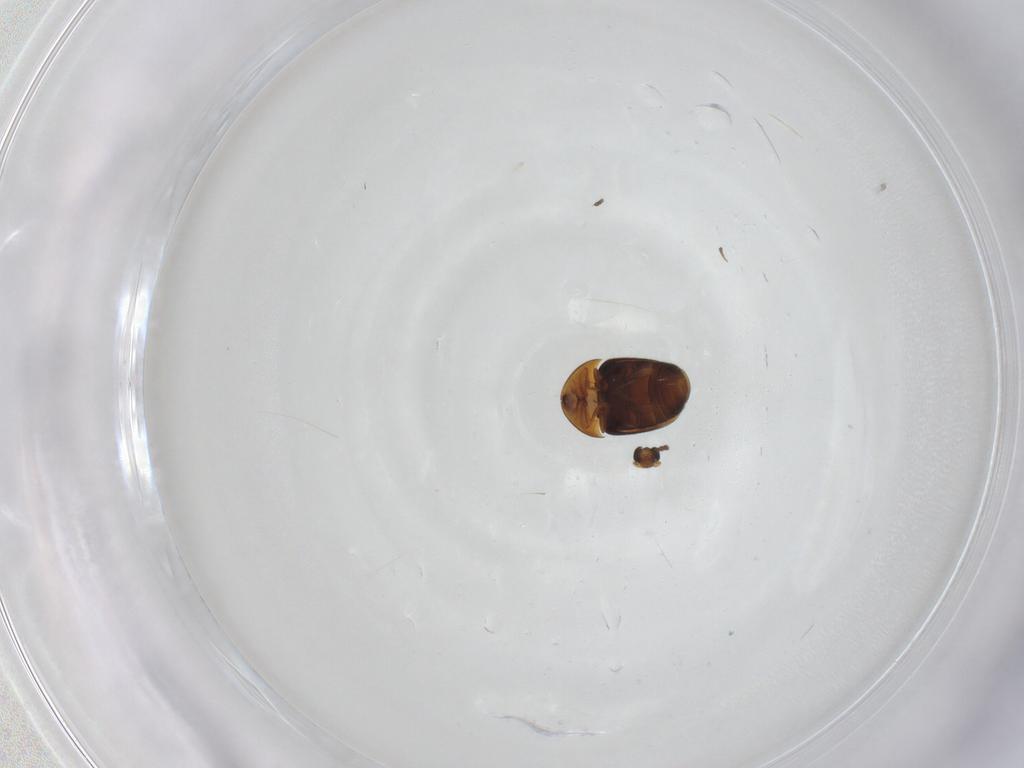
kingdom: Animalia
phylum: Arthropoda
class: Insecta
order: Coleoptera
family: Corylophidae
